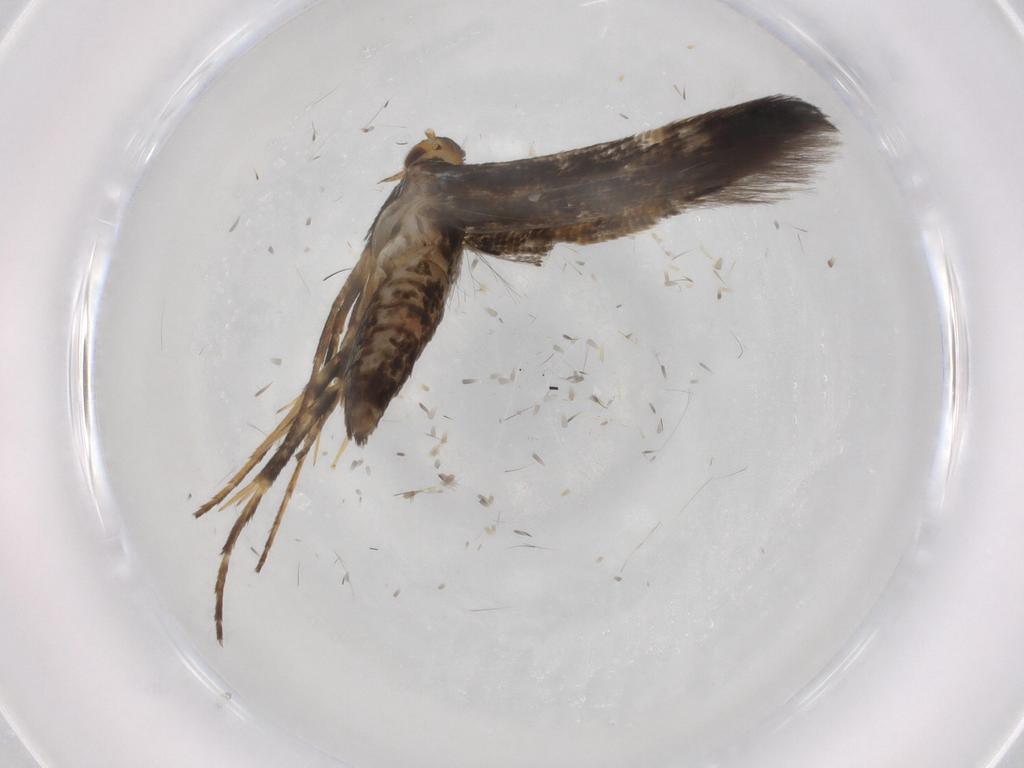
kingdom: Animalia
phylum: Arthropoda
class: Insecta
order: Lepidoptera
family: Heliodinidae
